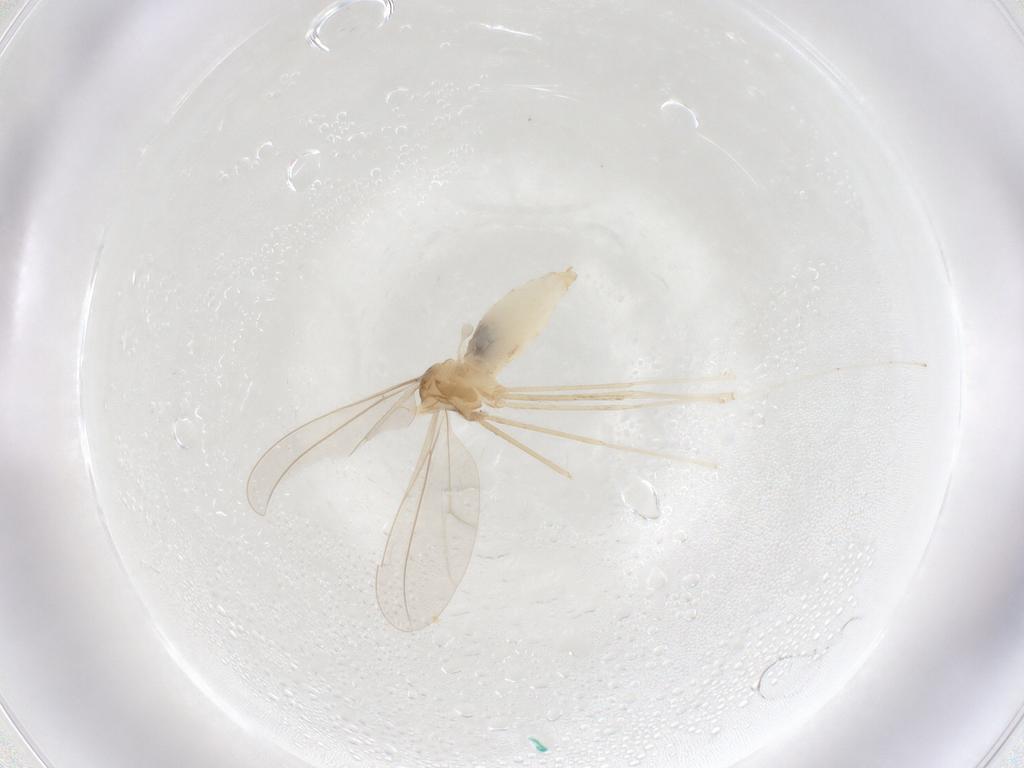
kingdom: Animalia
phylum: Arthropoda
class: Insecta
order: Diptera
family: Cecidomyiidae
